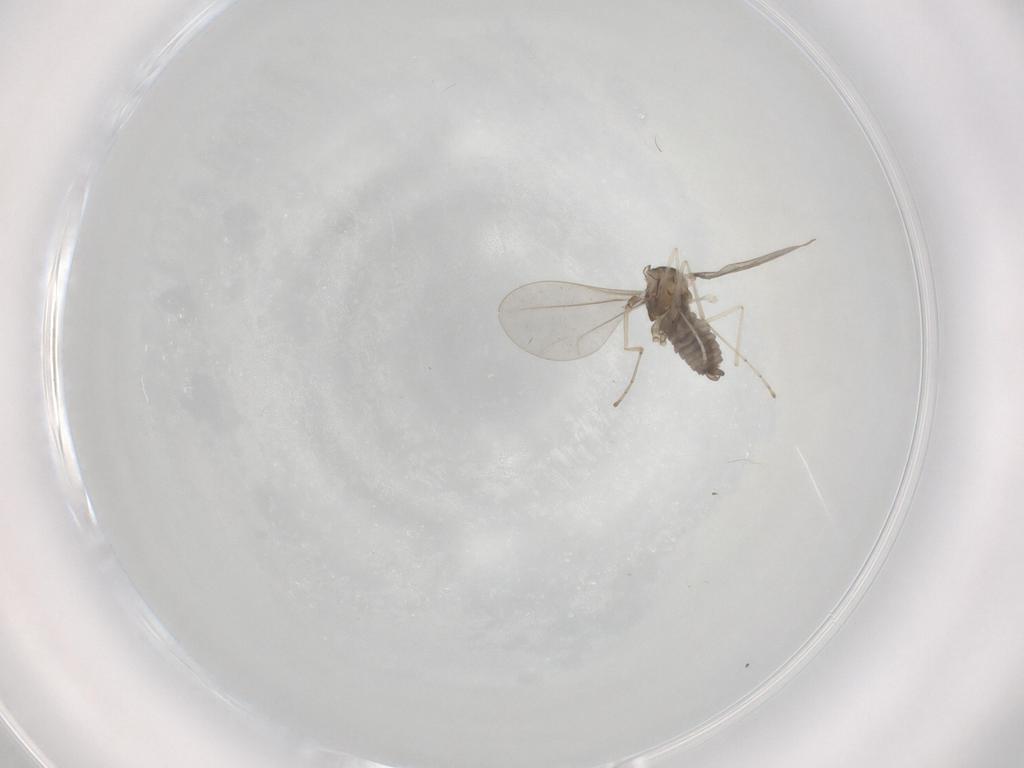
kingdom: Animalia
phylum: Arthropoda
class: Insecta
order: Diptera
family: Cecidomyiidae
